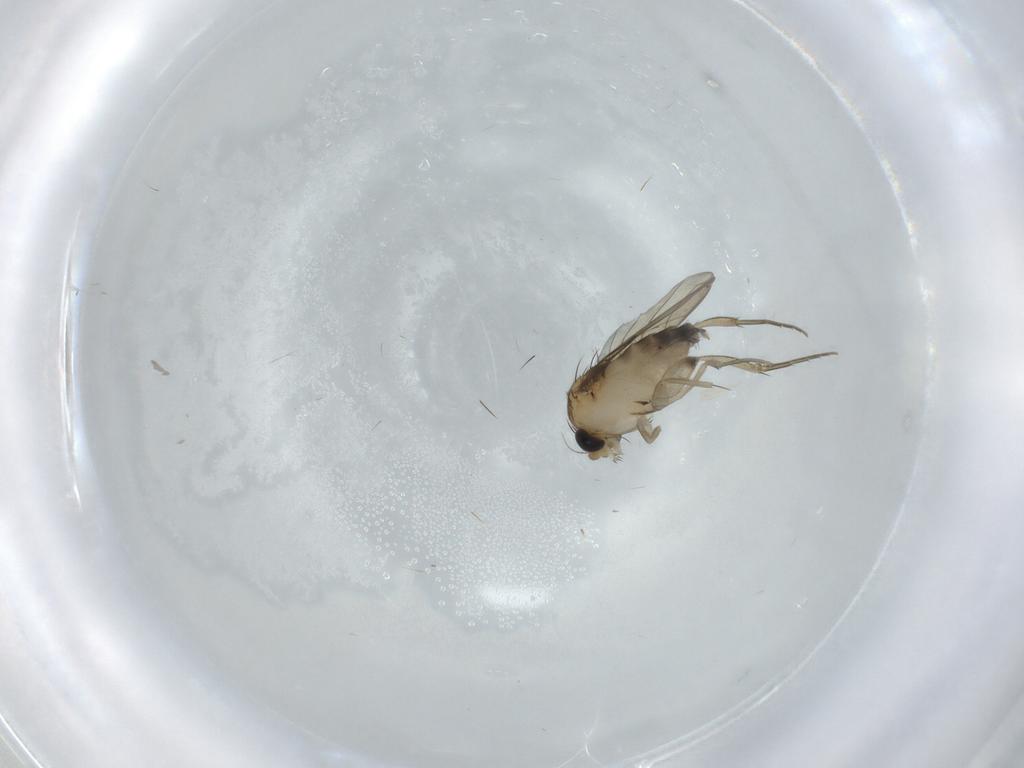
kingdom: Animalia
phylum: Arthropoda
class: Insecta
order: Diptera
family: Phoridae
